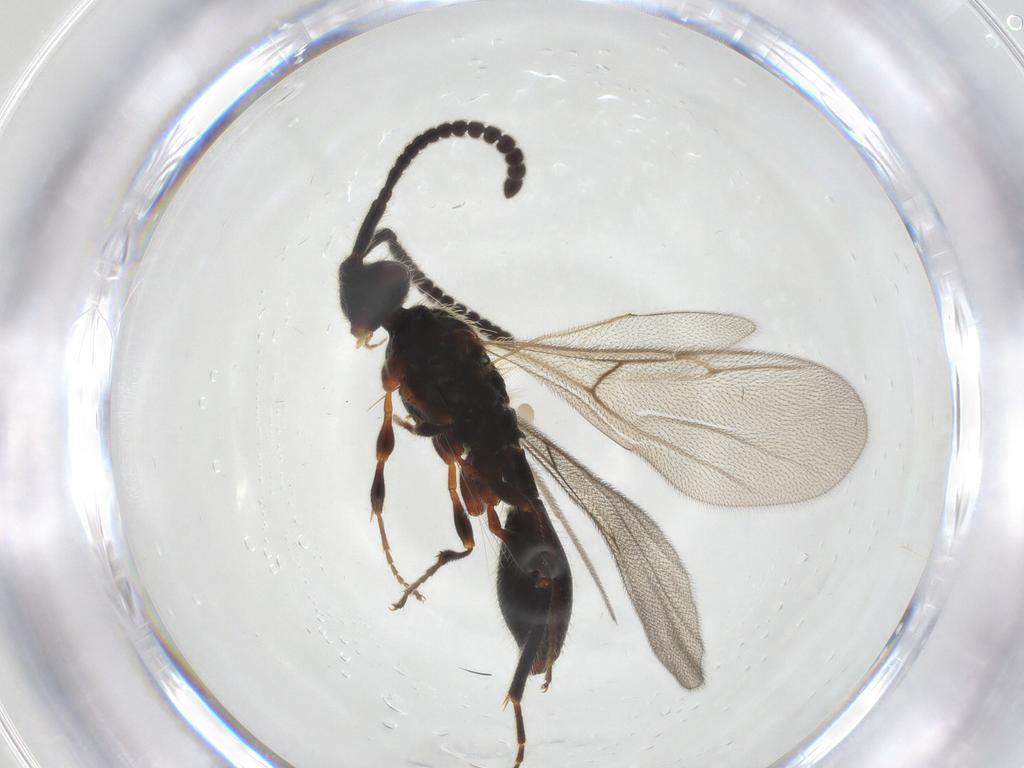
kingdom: Animalia
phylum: Arthropoda
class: Insecta
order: Hymenoptera
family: Diapriidae
